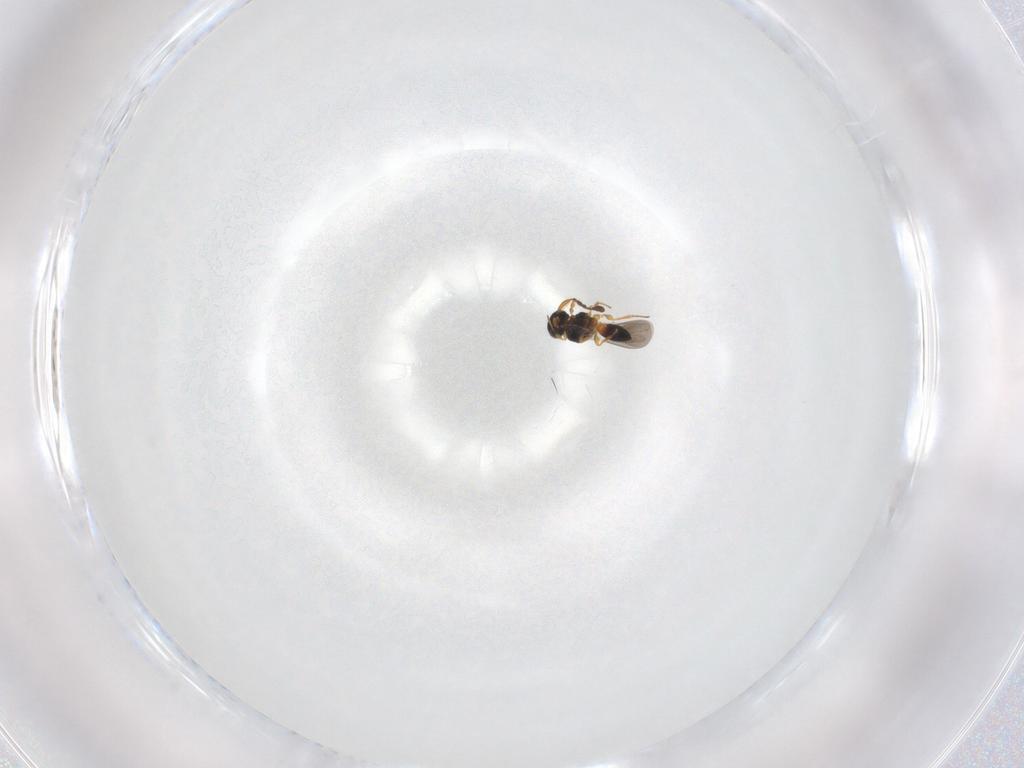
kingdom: Animalia
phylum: Arthropoda
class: Insecta
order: Hymenoptera
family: Platygastridae
